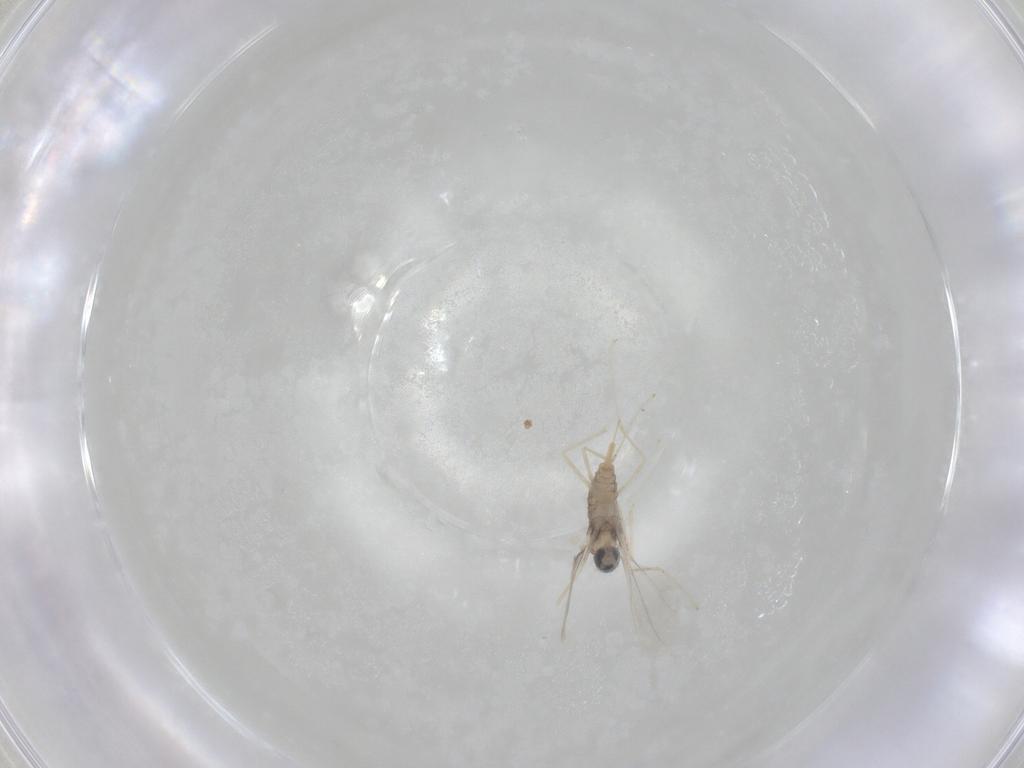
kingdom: Animalia
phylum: Arthropoda
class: Insecta
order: Diptera
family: Cecidomyiidae
